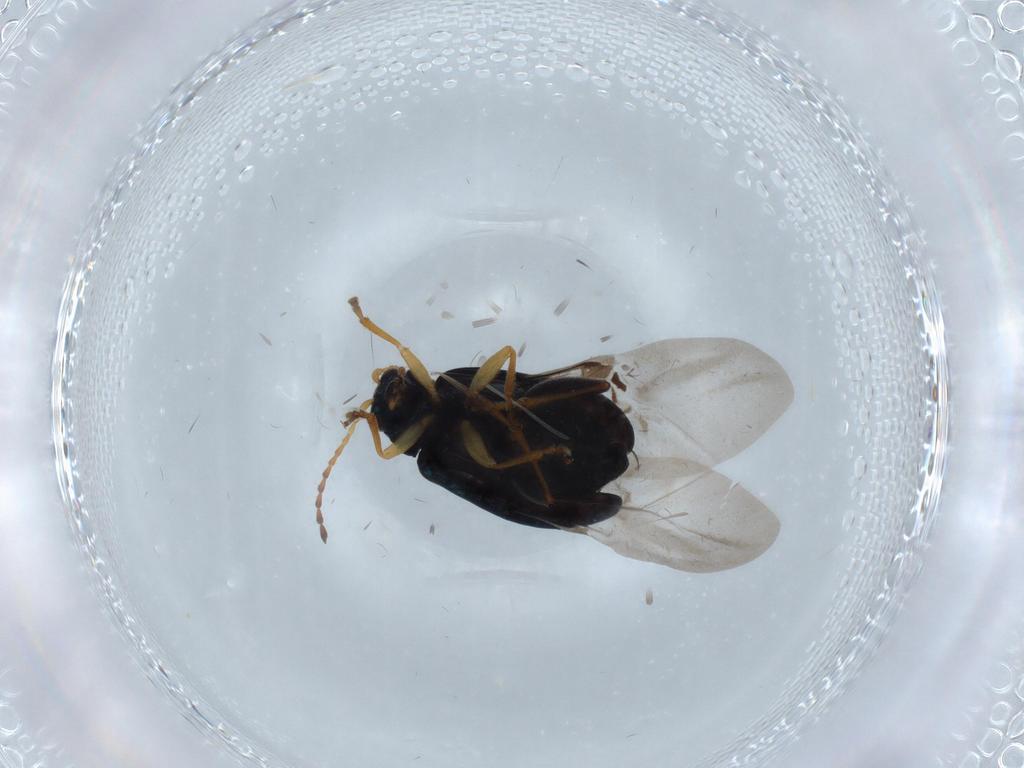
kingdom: Animalia
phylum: Arthropoda
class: Insecta
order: Coleoptera
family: Chrysomelidae
